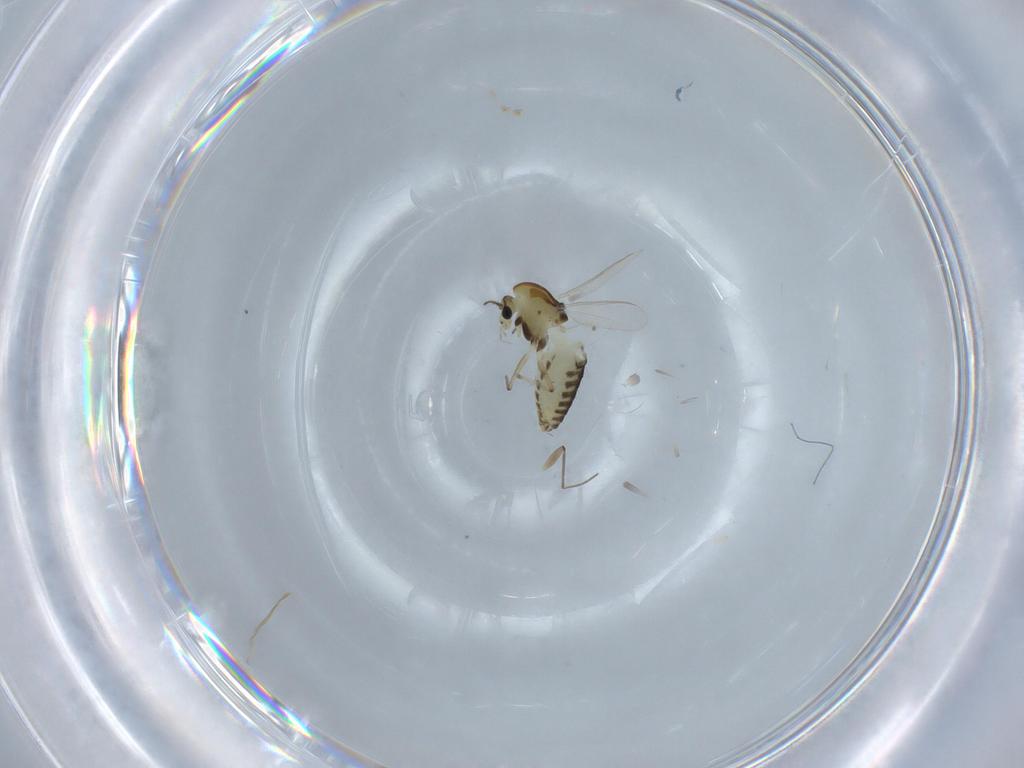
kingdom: Animalia
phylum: Arthropoda
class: Insecta
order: Diptera
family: Chironomidae
